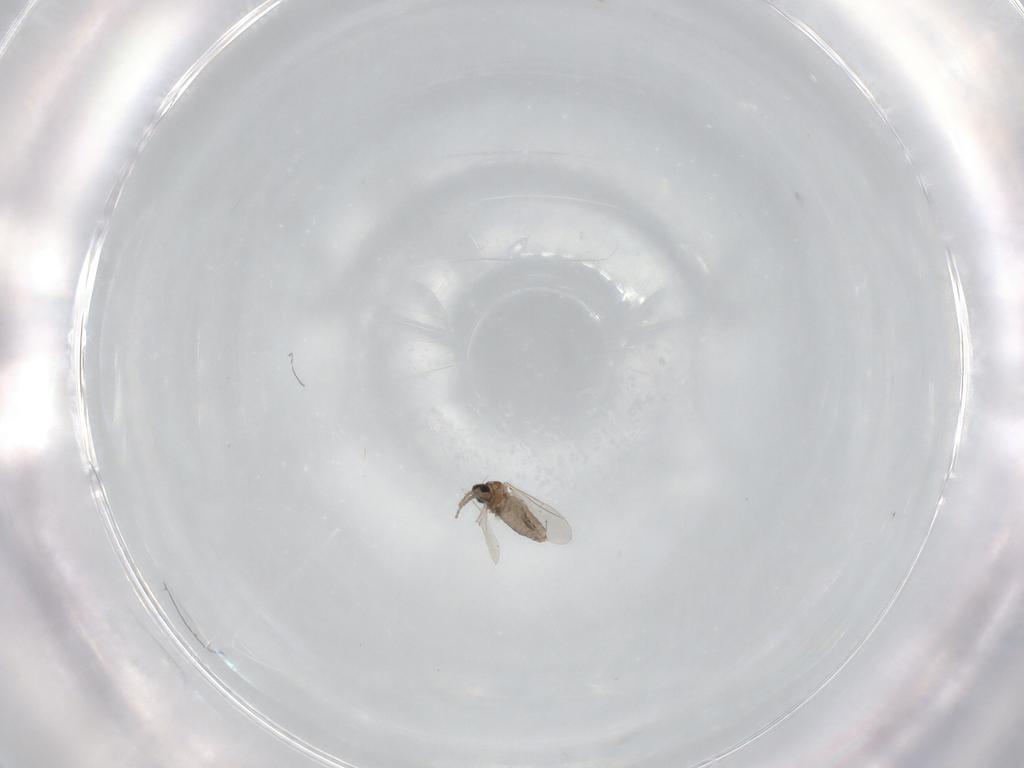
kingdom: Animalia
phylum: Arthropoda
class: Insecta
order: Diptera
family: Cecidomyiidae
